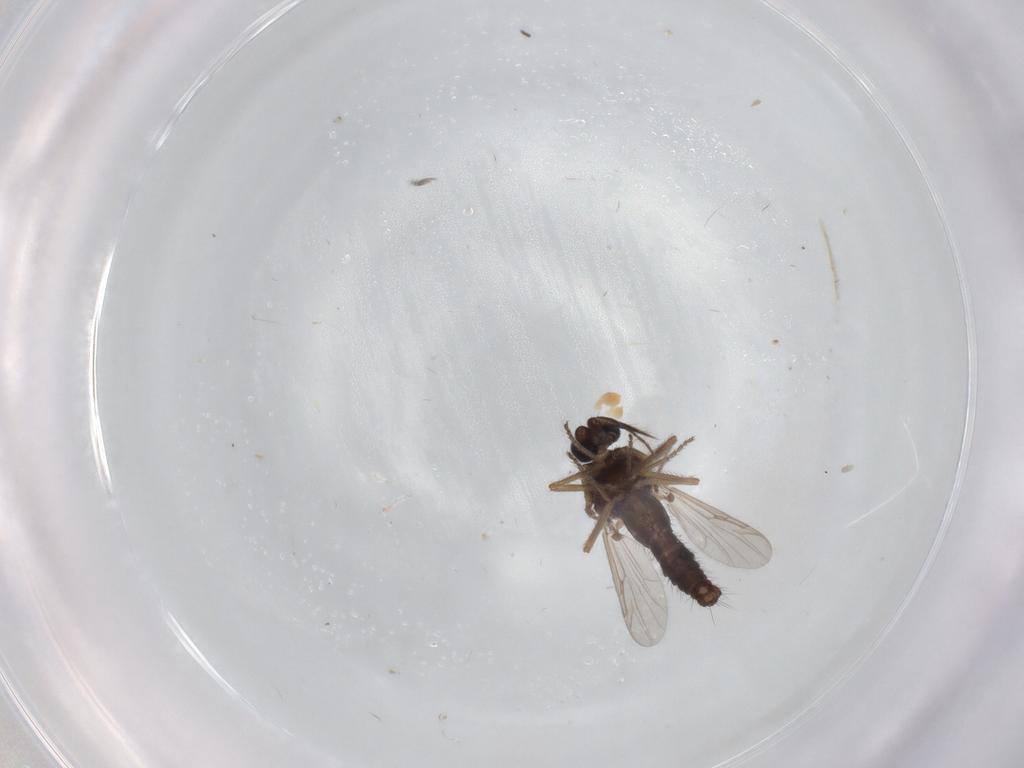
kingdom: Animalia
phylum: Arthropoda
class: Insecta
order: Diptera
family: Ceratopogonidae
